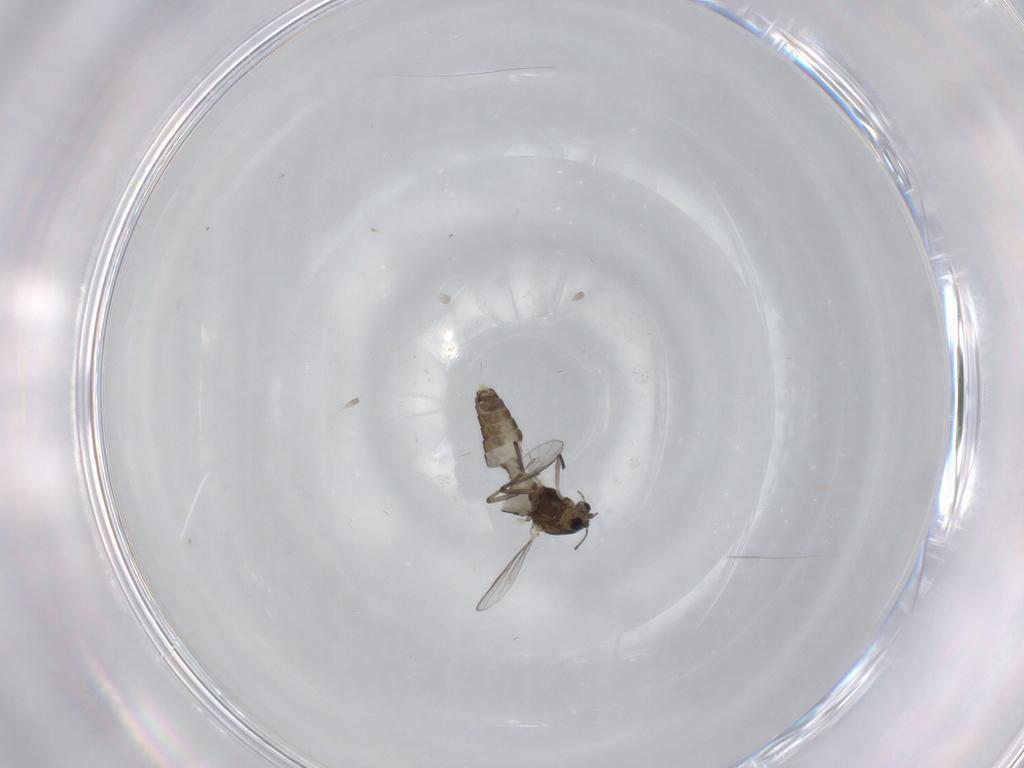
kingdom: Animalia
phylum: Arthropoda
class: Insecta
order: Diptera
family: Chironomidae
